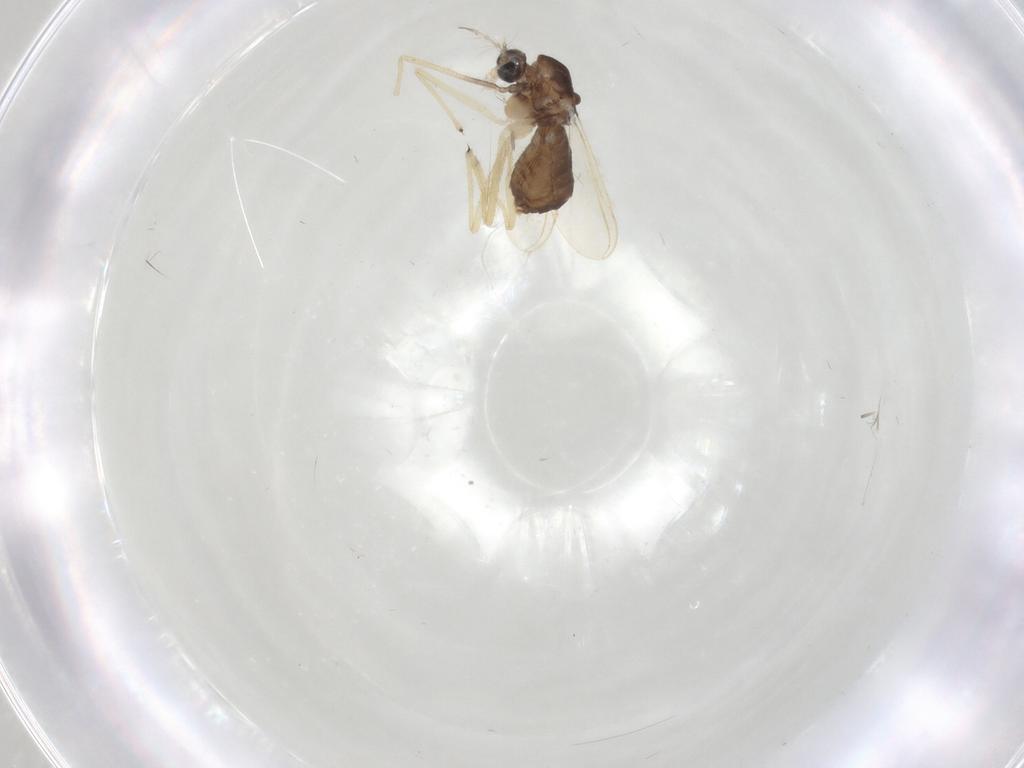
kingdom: Animalia
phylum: Arthropoda
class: Insecta
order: Diptera
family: Chironomidae
